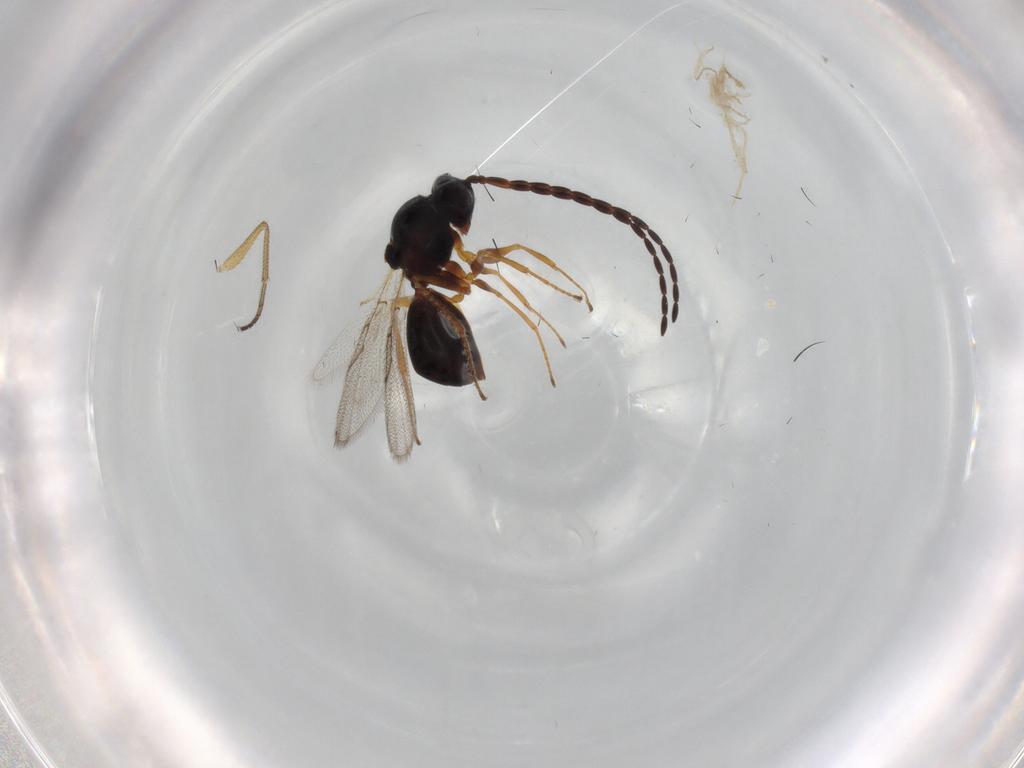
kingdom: Animalia
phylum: Arthropoda
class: Insecta
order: Hymenoptera
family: Figitidae
